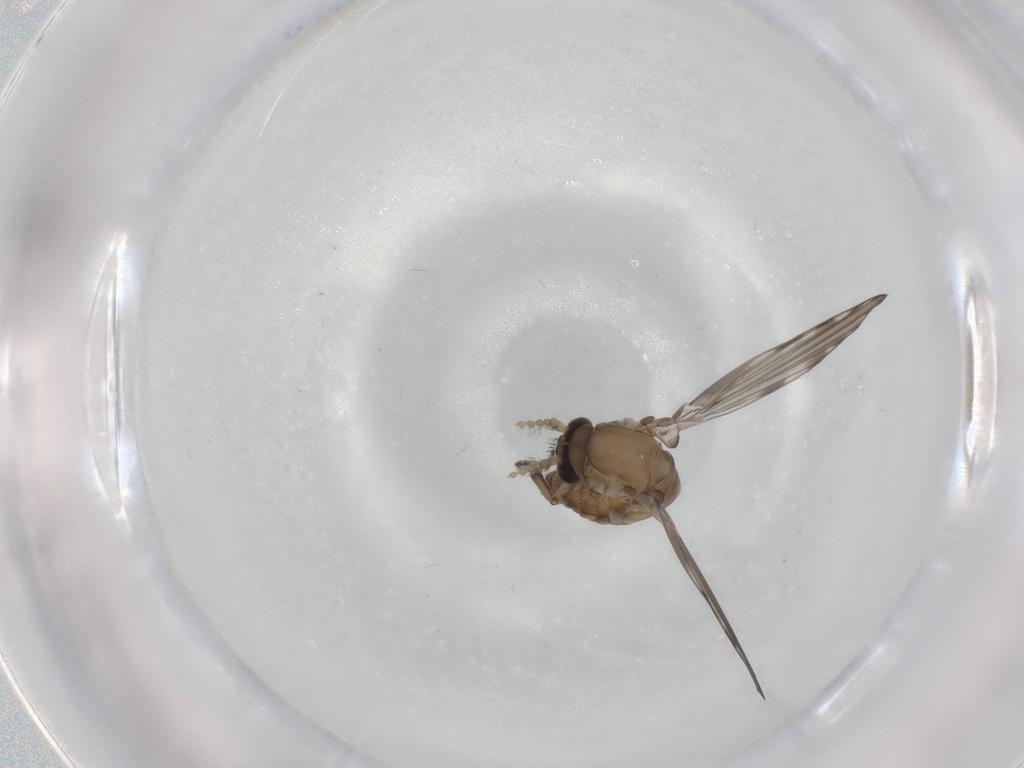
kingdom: Animalia
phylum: Arthropoda
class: Insecta
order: Diptera
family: Psychodidae
